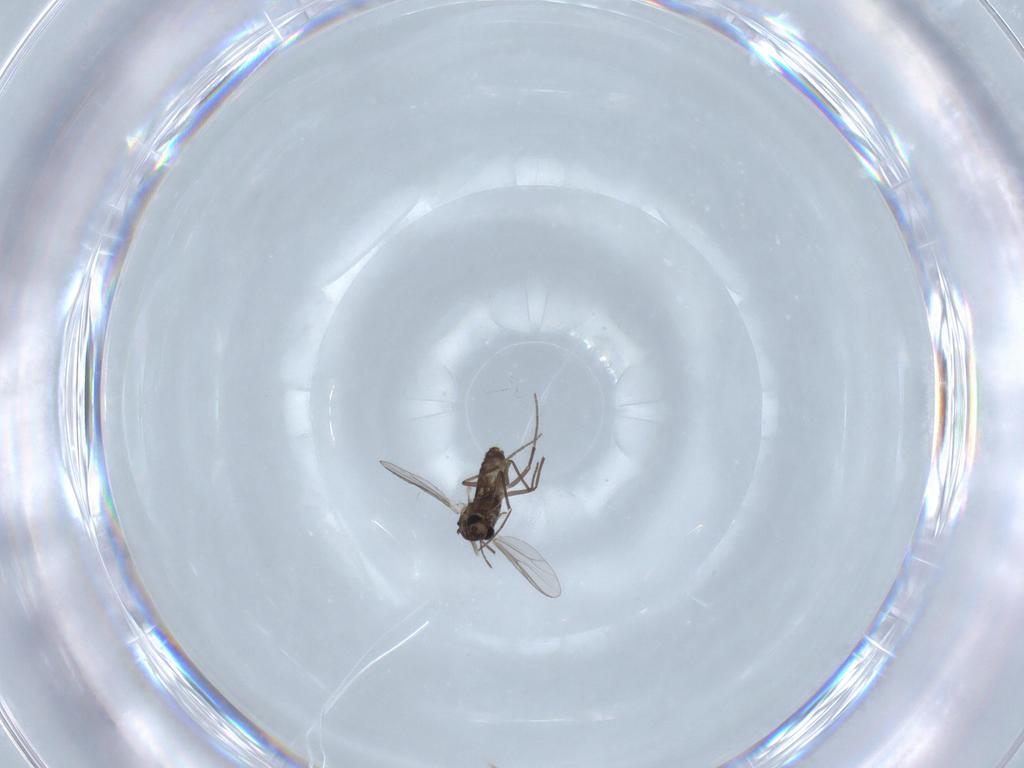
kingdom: Animalia
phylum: Arthropoda
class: Insecta
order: Diptera
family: Chironomidae
